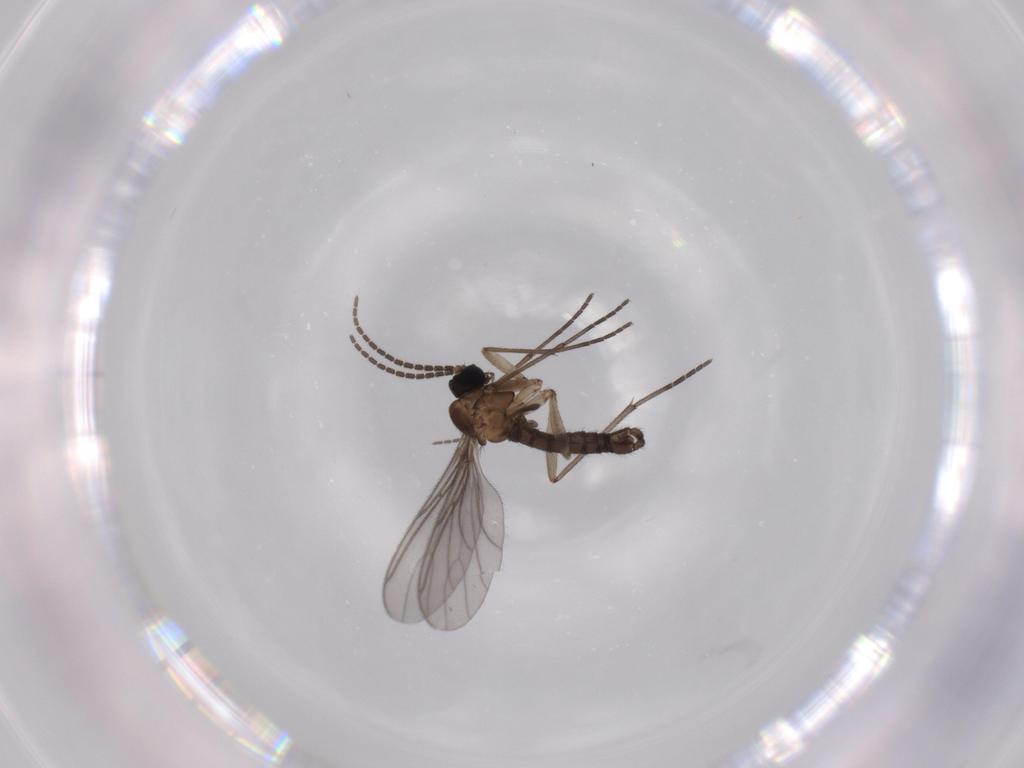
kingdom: Animalia
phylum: Arthropoda
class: Insecta
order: Diptera
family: Sciaridae
